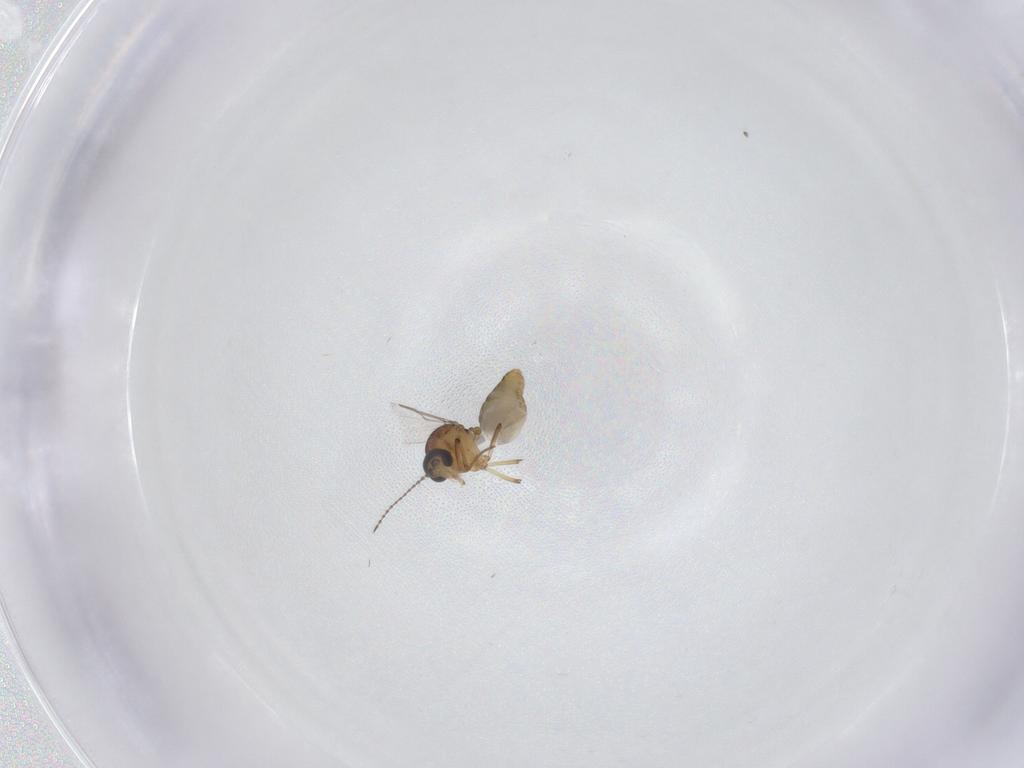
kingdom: Animalia
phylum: Arthropoda
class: Insecta
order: Diptera
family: Ceratopogonidae
